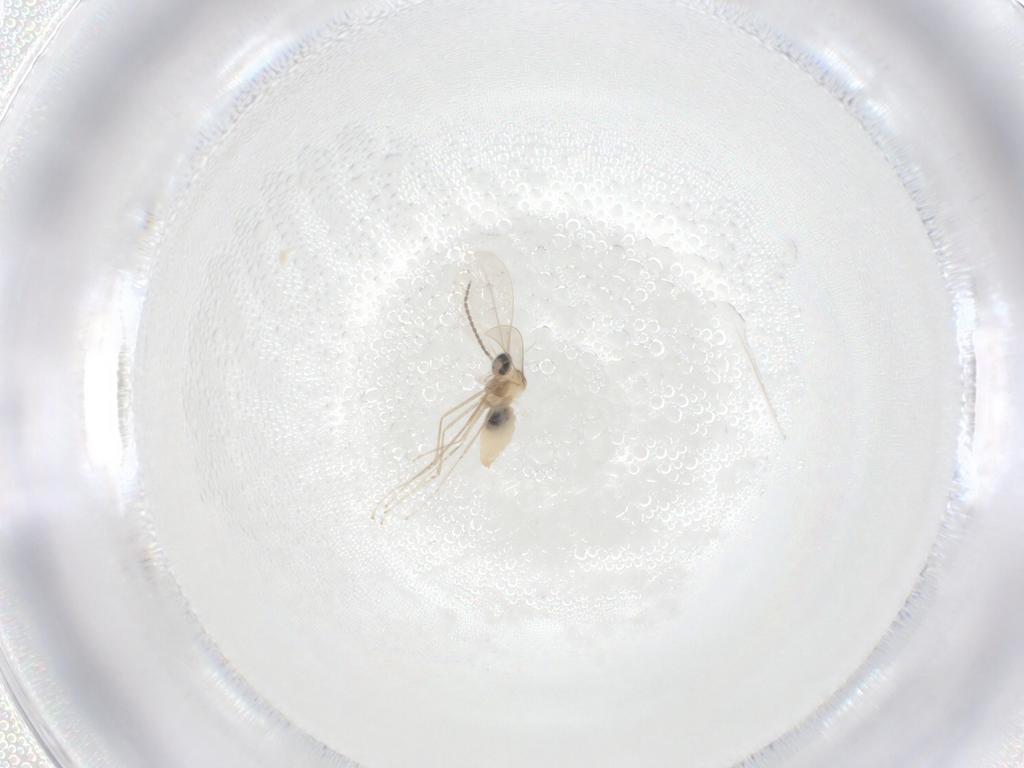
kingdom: Animalia
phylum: Arthropoda
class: Insecta
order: Diptera
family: Cecidomyiidae
